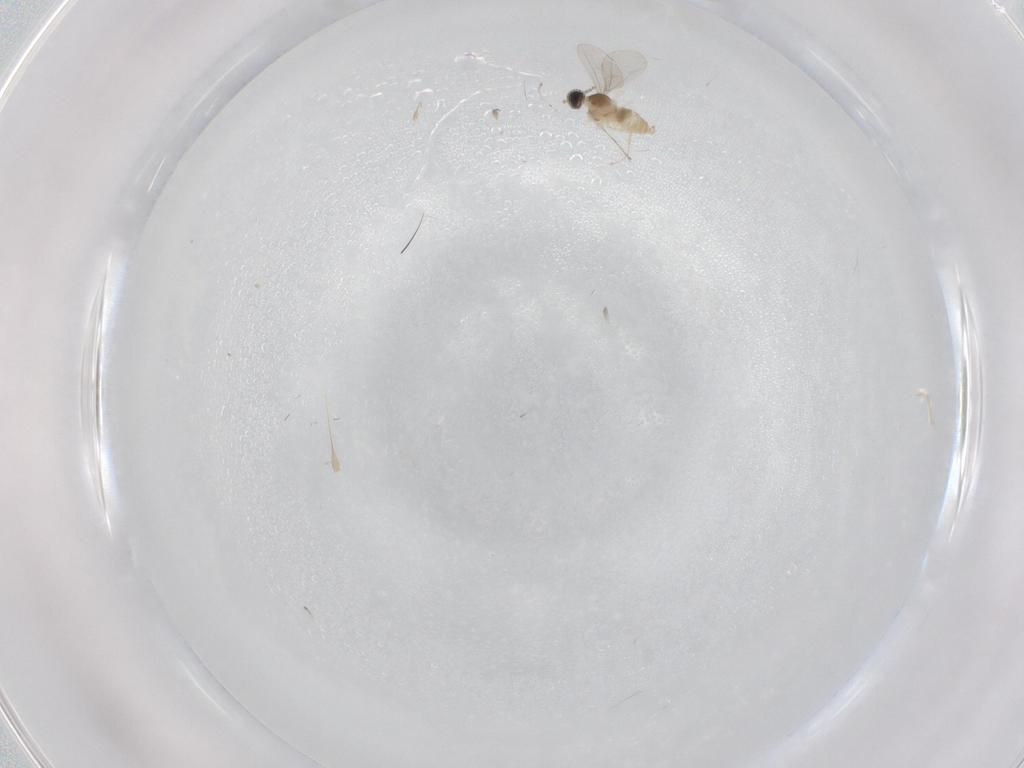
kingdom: Animalia
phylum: Arthropoda
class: Insecta
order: Diptera
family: Cecidomyiidae
